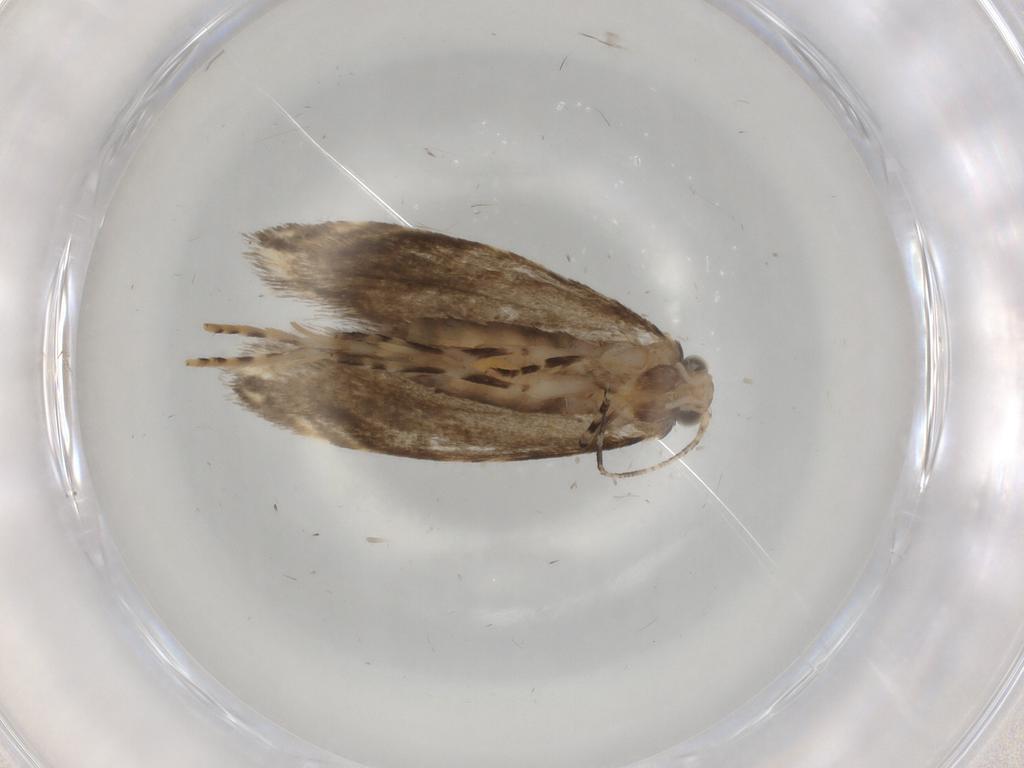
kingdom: Animalia
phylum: Arthropoda
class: Insecta
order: Lepidoptera
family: Tineidae
